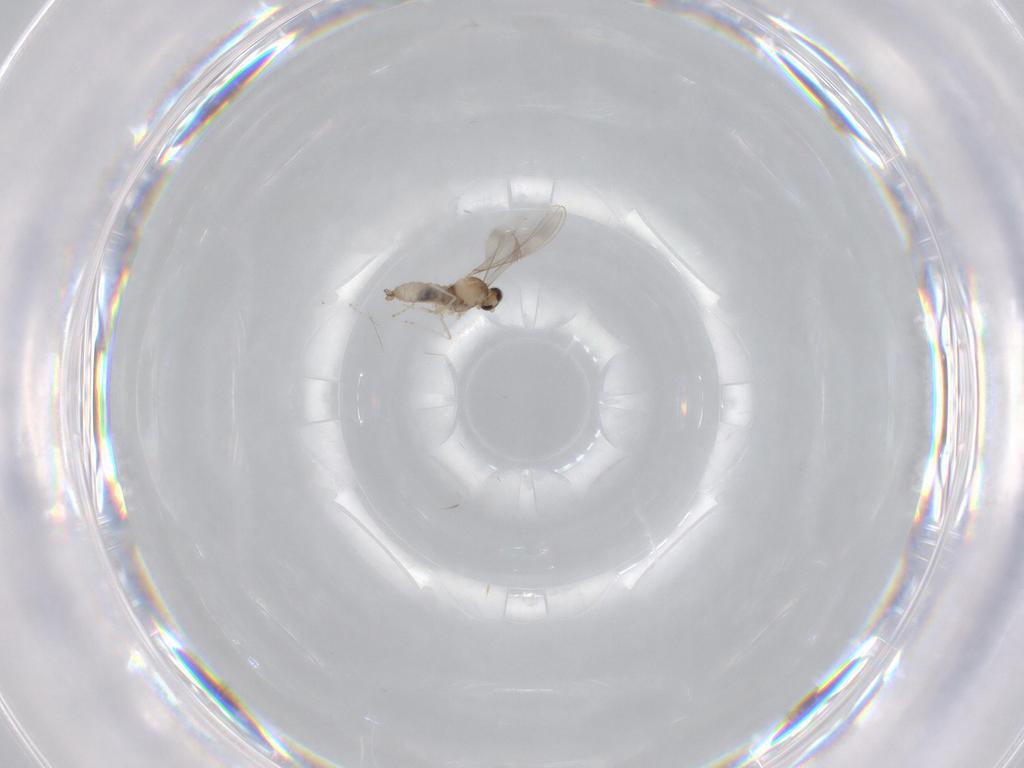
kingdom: Animalia
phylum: Arthropoda
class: Insecta
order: Diptera
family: Cecidomyiidae
